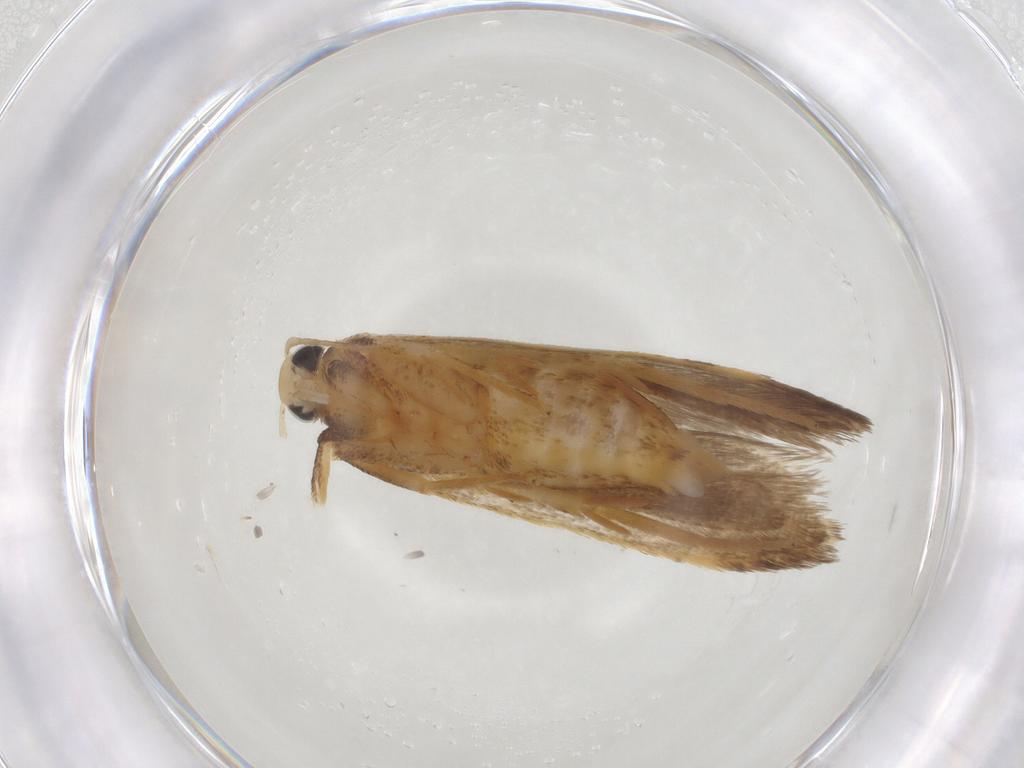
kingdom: Animalia
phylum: Arthropoda
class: Insecta
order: Lepidoptera
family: Gelechiidae
